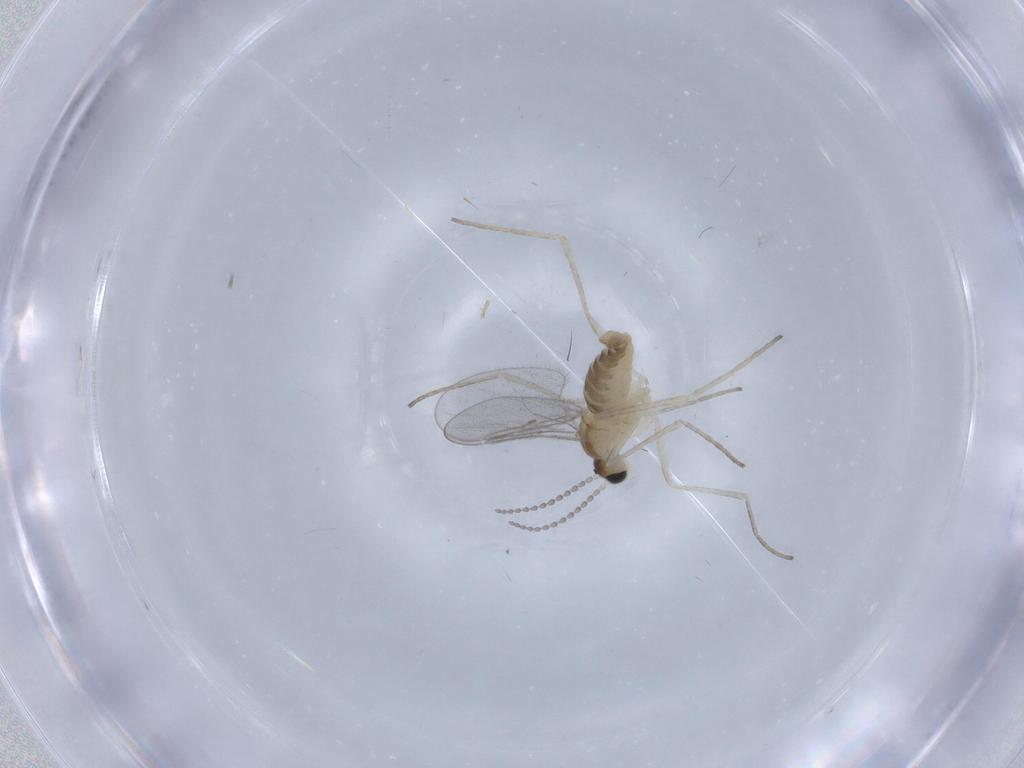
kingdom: Animalia
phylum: Arthropoda
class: Insecta
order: Diptera
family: Cecidomyiidae
